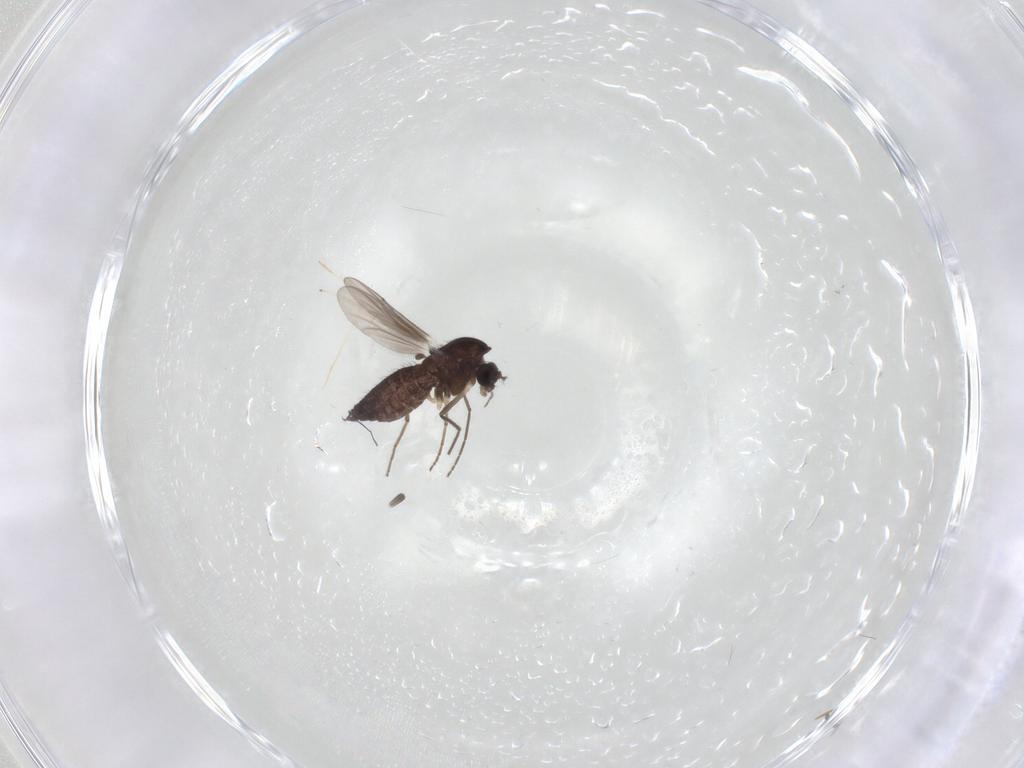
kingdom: Animalia
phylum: Arthropoda
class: Insecta
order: Diptera
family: Chironomidae
